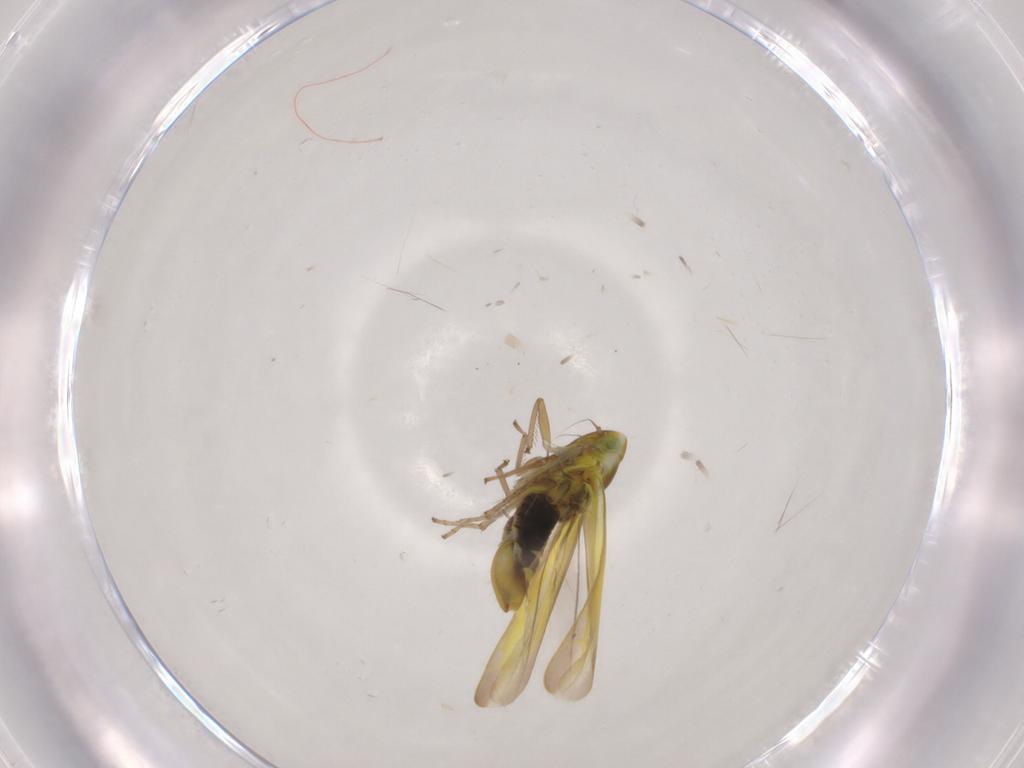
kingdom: Animalia
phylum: Arthropoda
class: Insecta
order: Hemiptera
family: Cicadellidae
